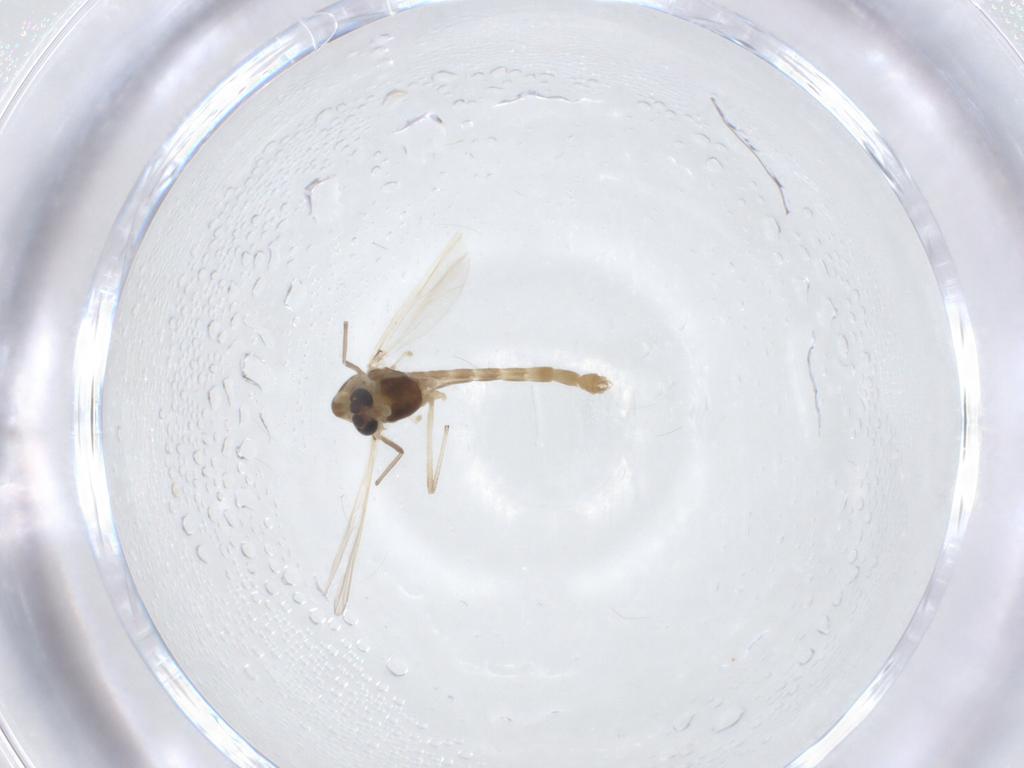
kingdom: Animalia
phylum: Arthropoda
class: Insecta
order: Diptera
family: Chironomidae
